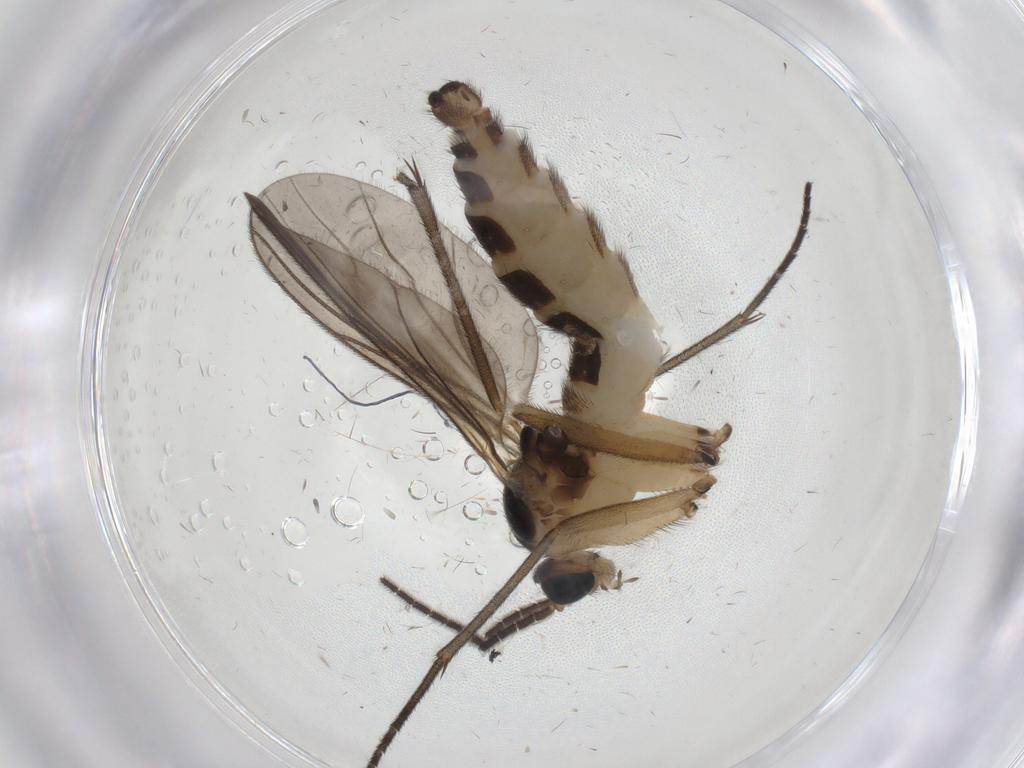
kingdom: Animalia
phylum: Arthropoda
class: Insecta
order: Diptera
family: Sciaridae
